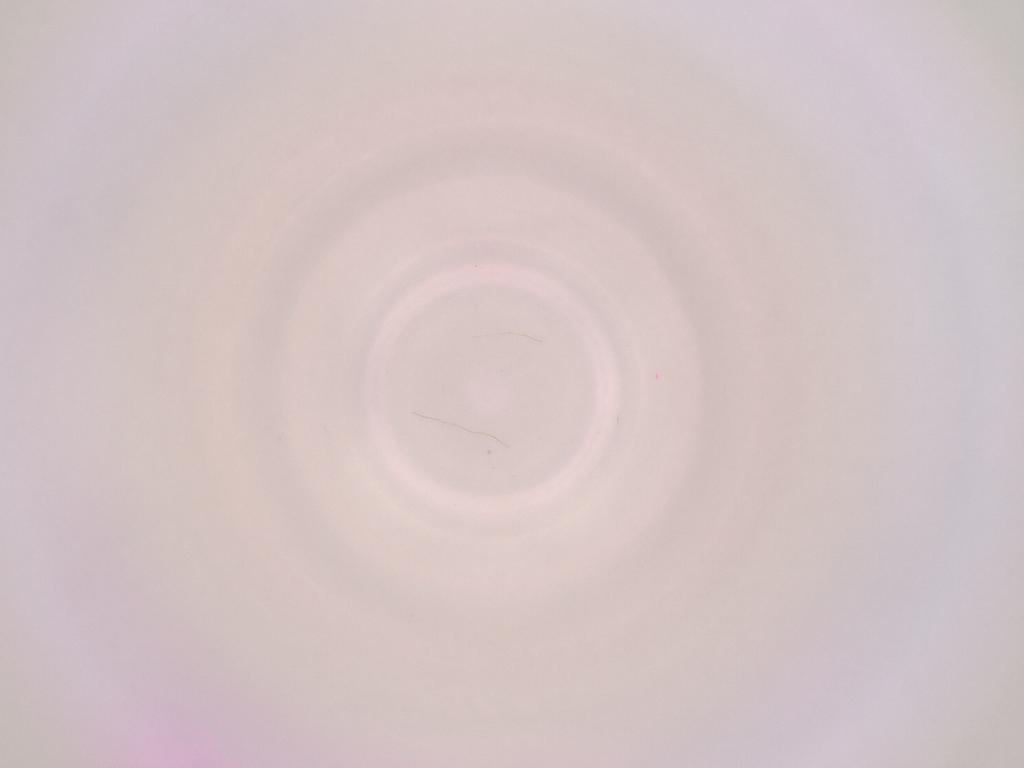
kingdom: Animalia
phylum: Arthropoda
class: Insecta
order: Diptera
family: Cecidomyiidae
